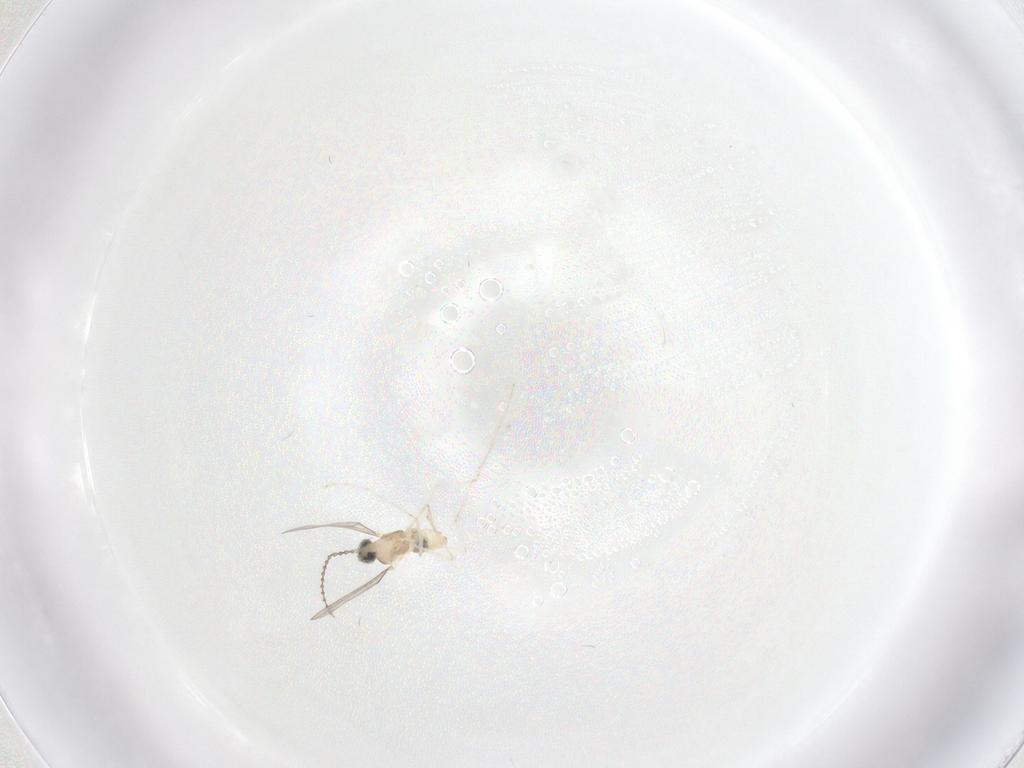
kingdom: Animalia
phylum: Arthropoda
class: Insecta
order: Diptera
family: Cecidomyiidae
